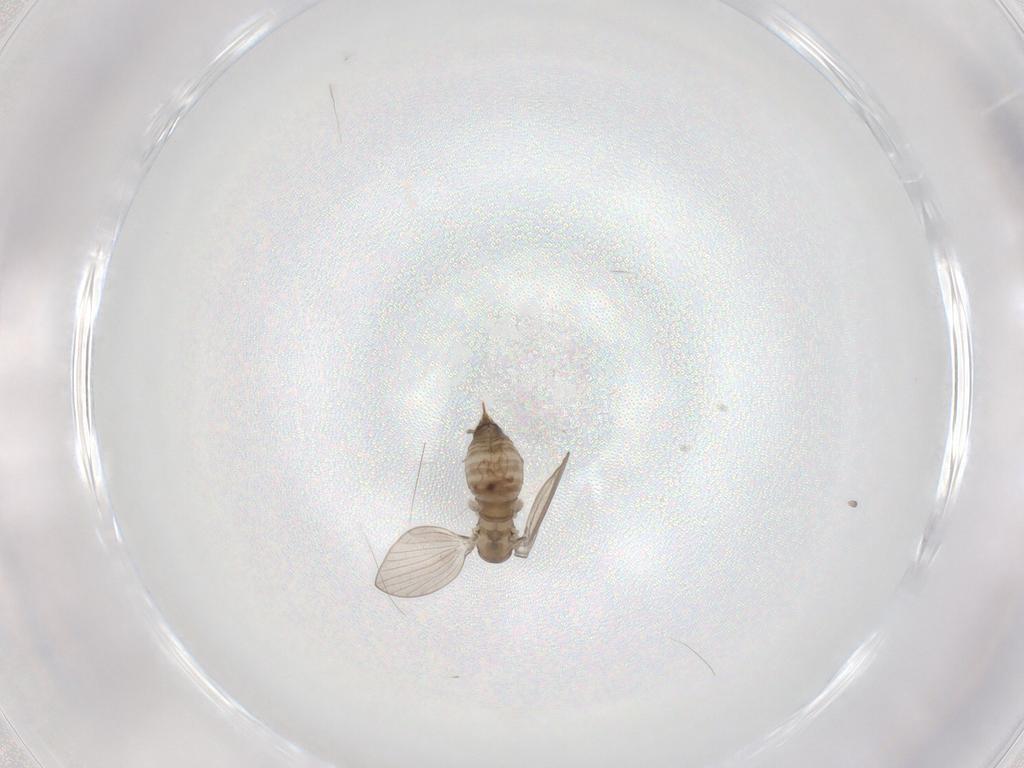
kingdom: Animalia
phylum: Arthropoda
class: Insecta
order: Diptera
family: Psychodidae
